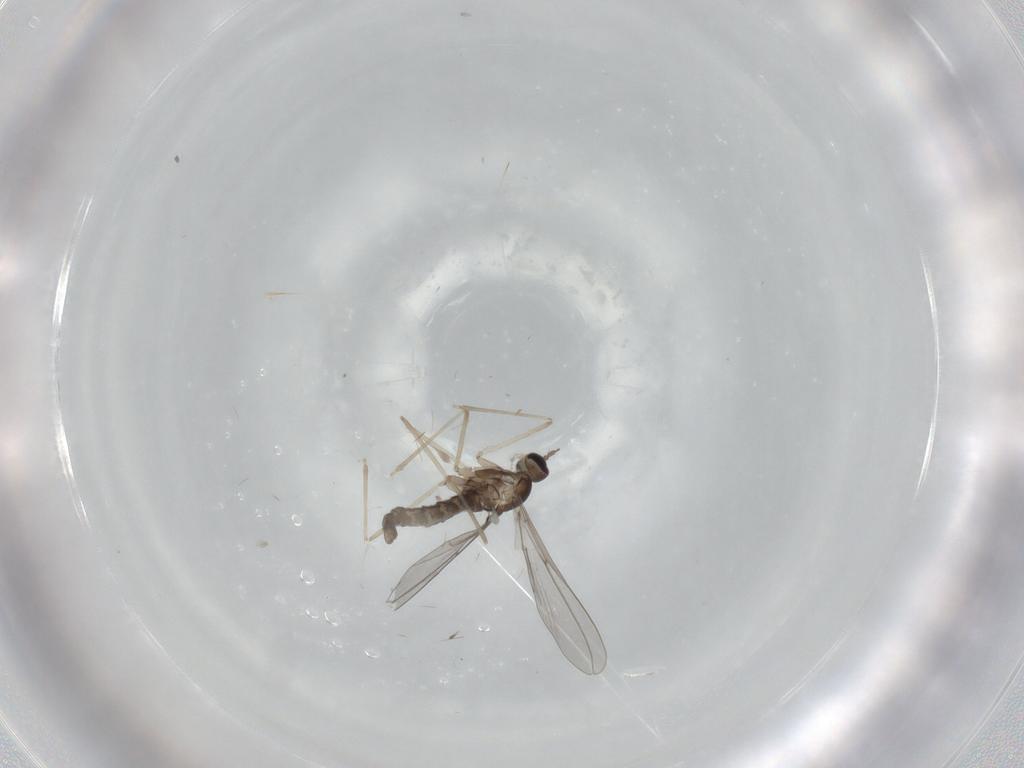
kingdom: Animalia
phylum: Arthropoda
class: Insecta
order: Diptera
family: Cecidomyiidae
